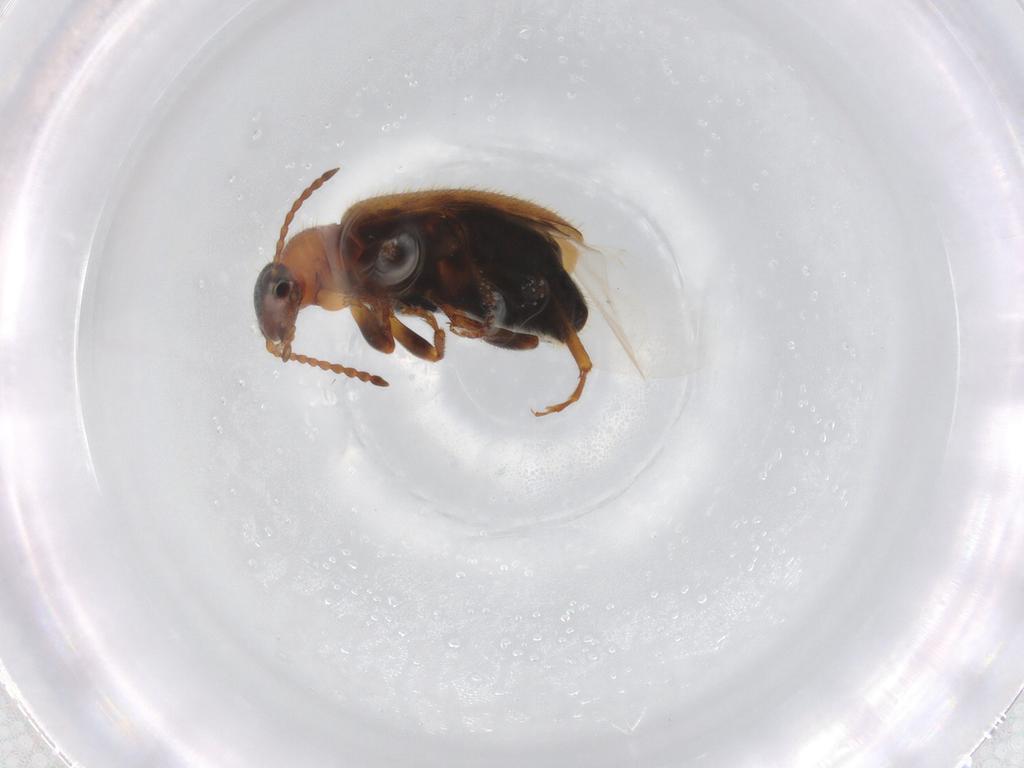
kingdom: Animalia
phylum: Arthropoda
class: Insecta
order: Coleoptera
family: Anthicidae
